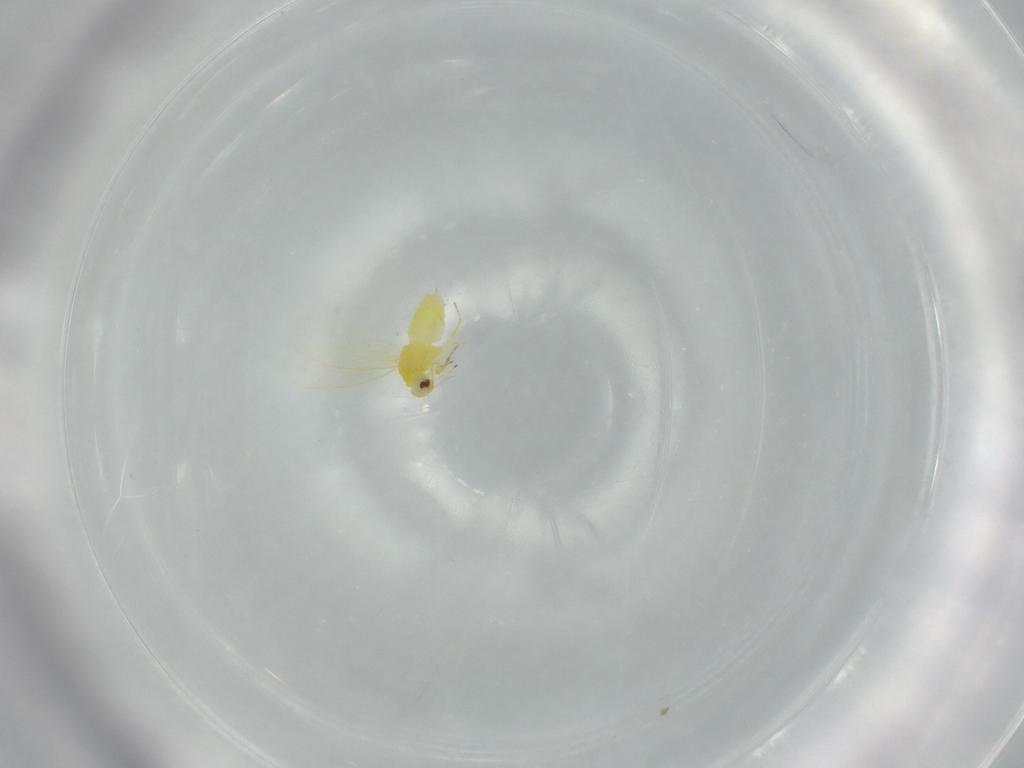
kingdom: Animalia
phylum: Arthropoda
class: Insecta
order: Hemiptera
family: Aleyrodidae
